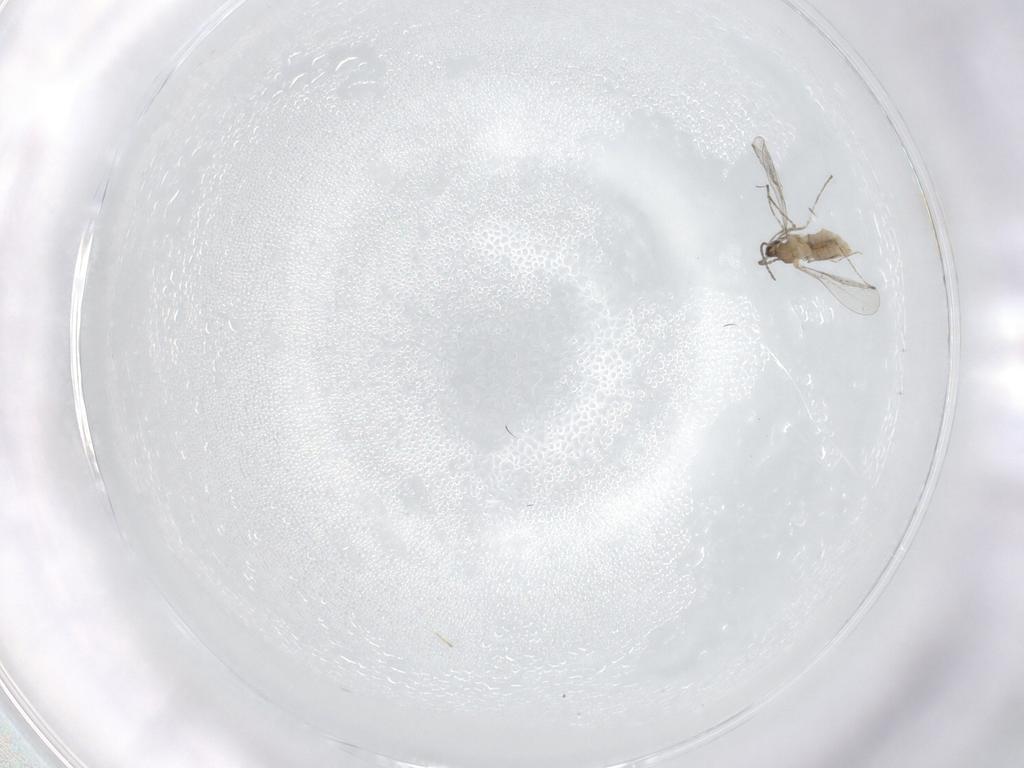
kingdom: Animalia
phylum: Arthropoda
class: Insecta
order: Diptera
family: Cecidomyiidae
